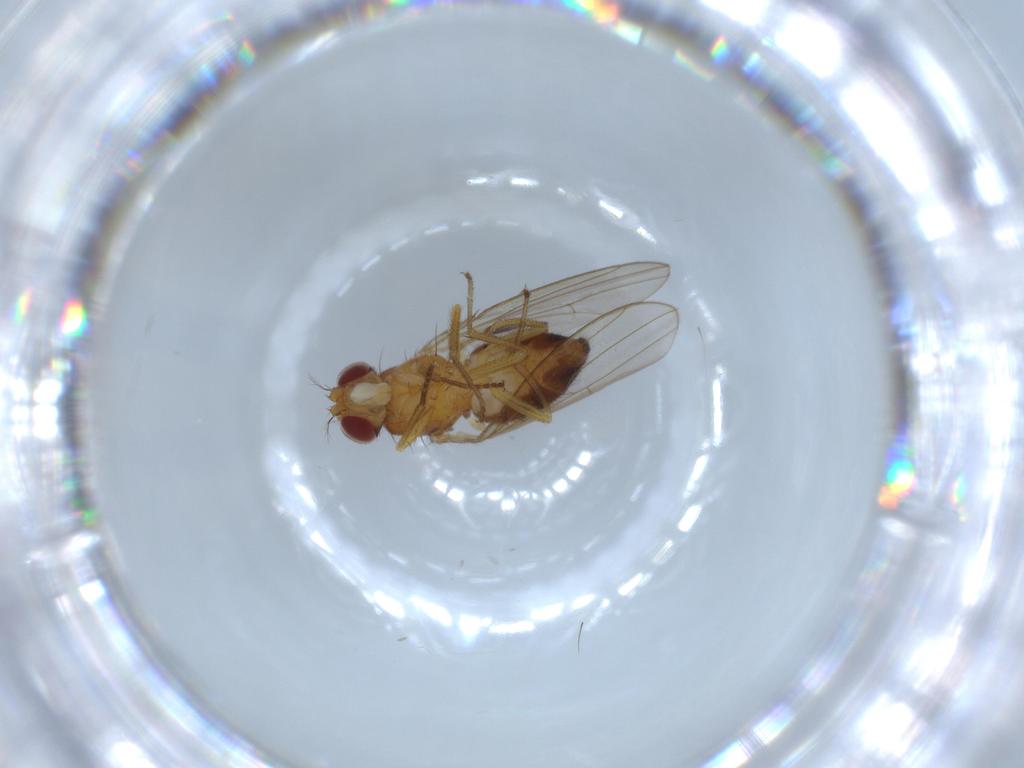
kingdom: Animalia
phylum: Arthropoda
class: Insecta
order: Diptera
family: Drosophilidae
